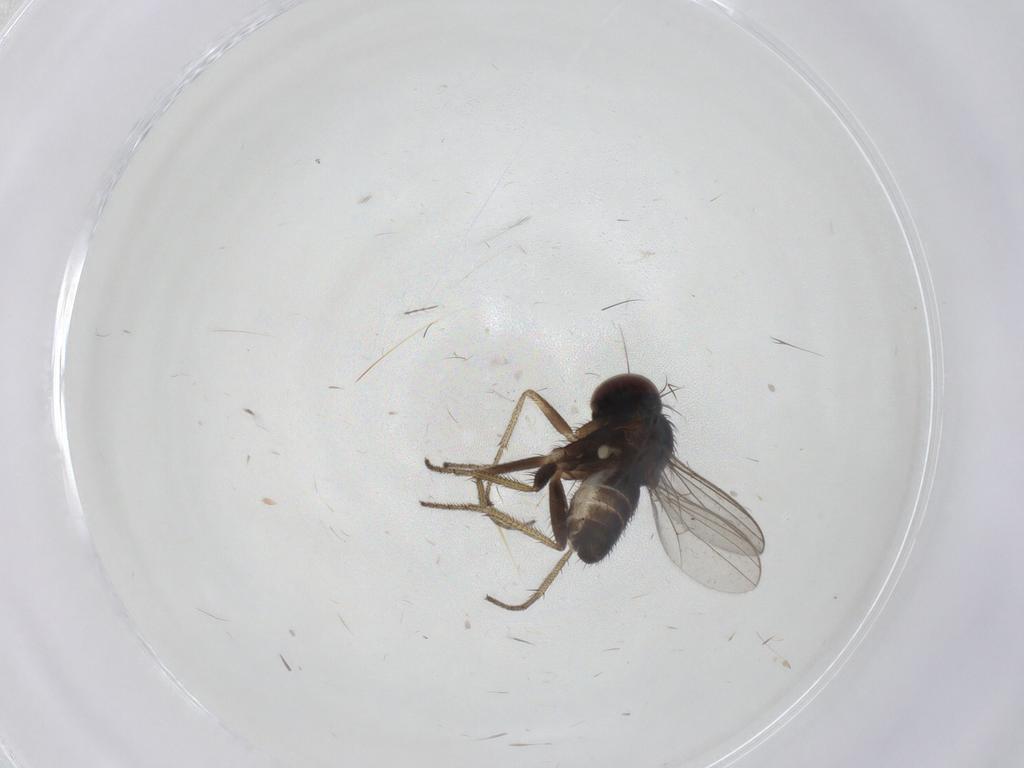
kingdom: Animalia
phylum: Arthropoda
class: Insecta
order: Diptera
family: Chironomidae
